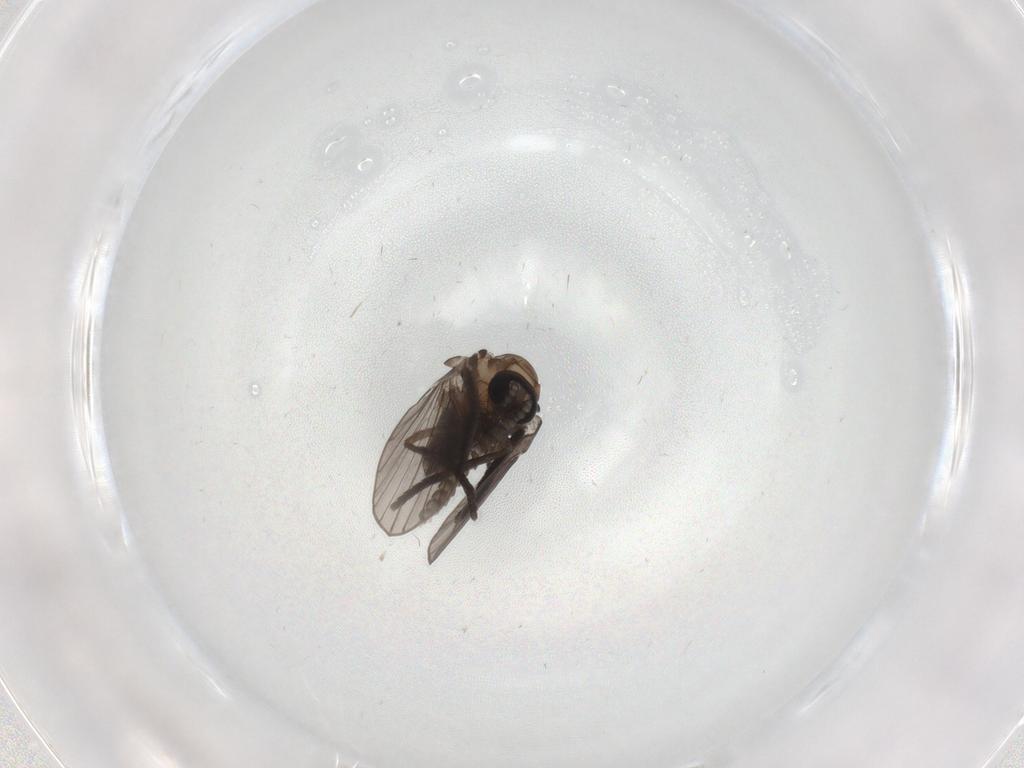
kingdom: Animalia
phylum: Arthropoda
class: Insecta
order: Diptera
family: Psychodidae
